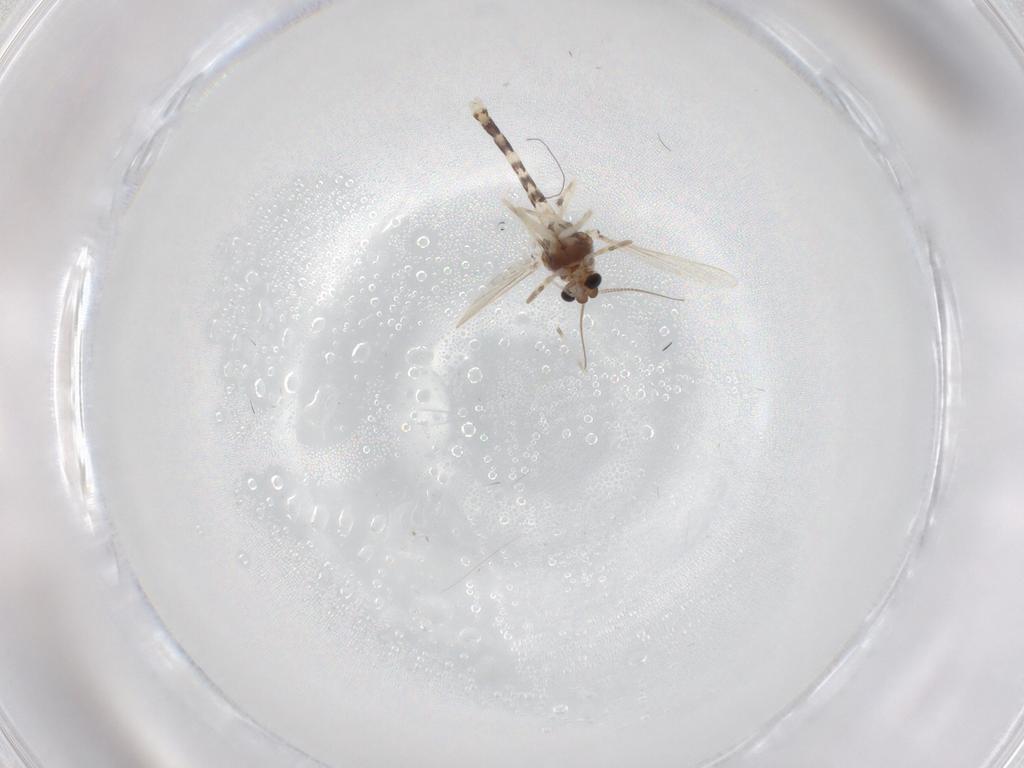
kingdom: Animalia
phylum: Arthropoda
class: Insecta
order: Diptera
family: Chironomidae
